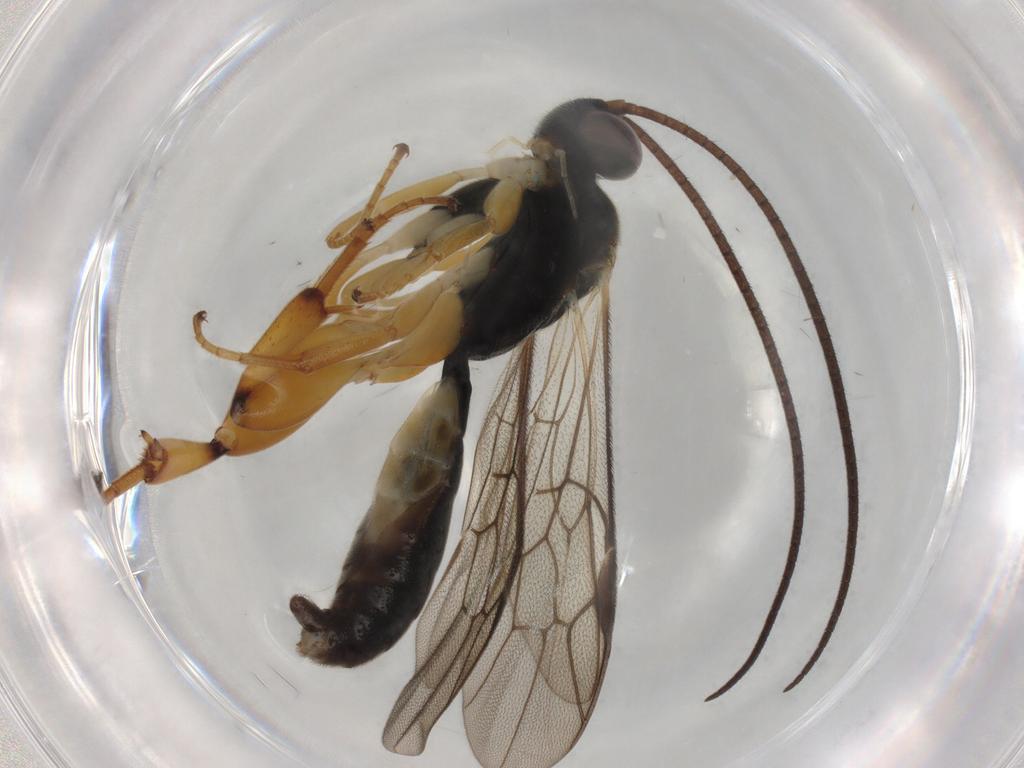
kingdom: Animalia
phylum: Arthropoda
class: Insecta
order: Hymenoptera
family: Ichneumonidae
